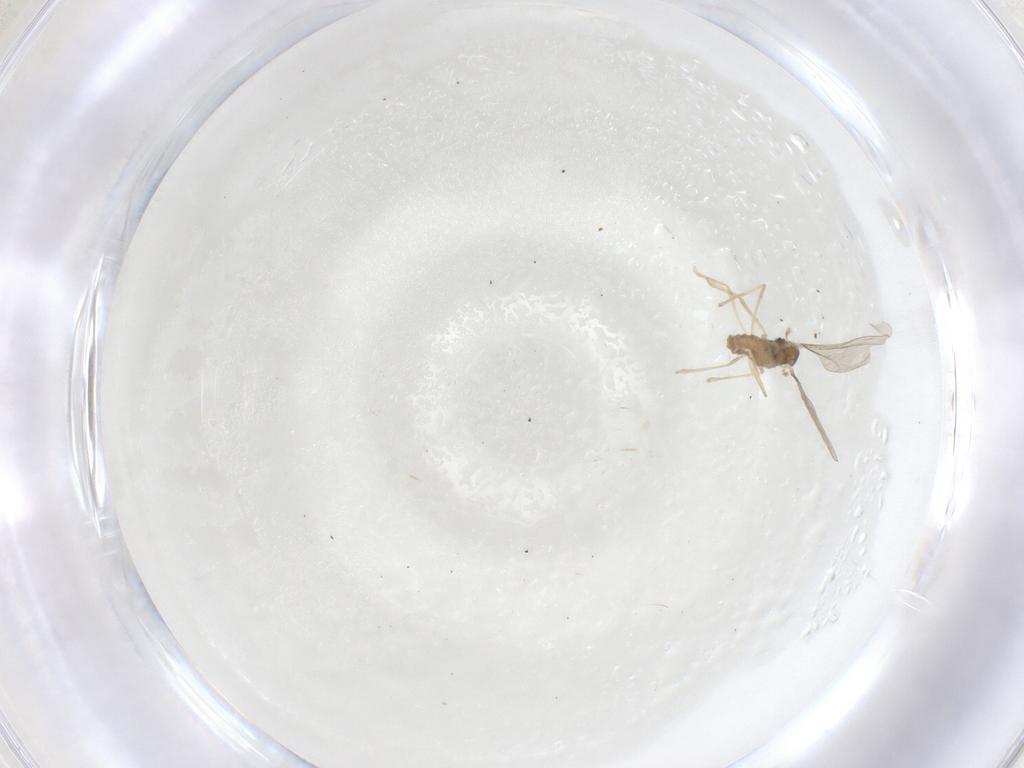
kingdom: Animalia
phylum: Arthropoda
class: Insecta
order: Diptera
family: Cecidomyiidae
